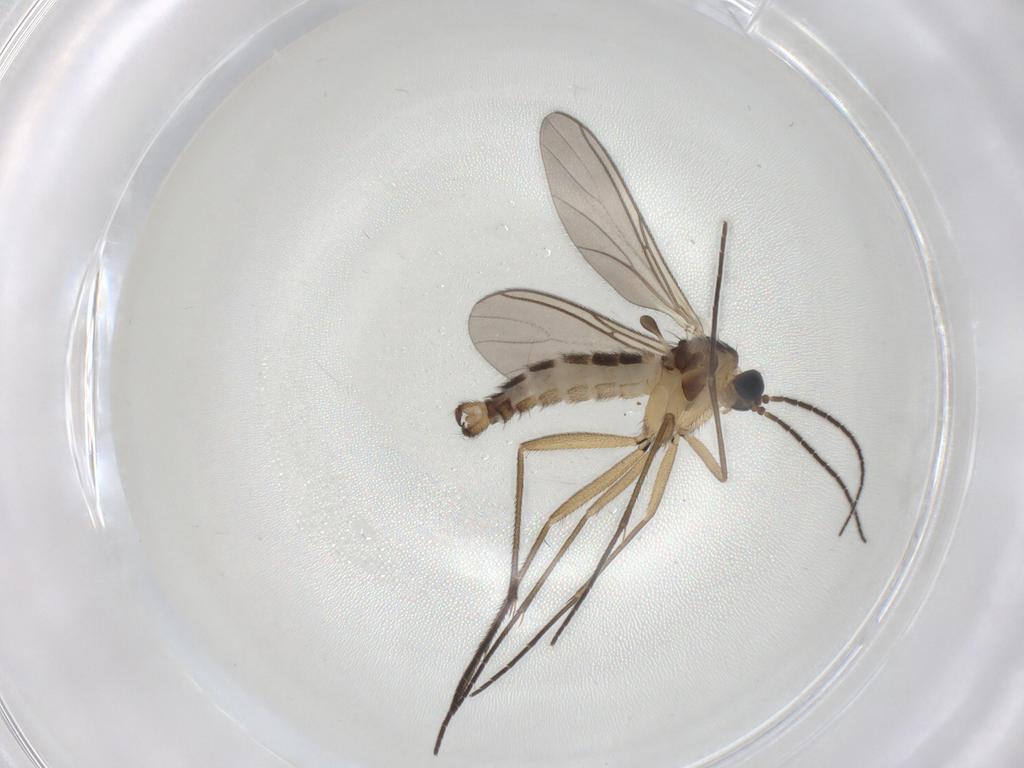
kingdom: Animalia
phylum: Arthropoda
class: Insecta
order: Diptera
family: Sciaridae
